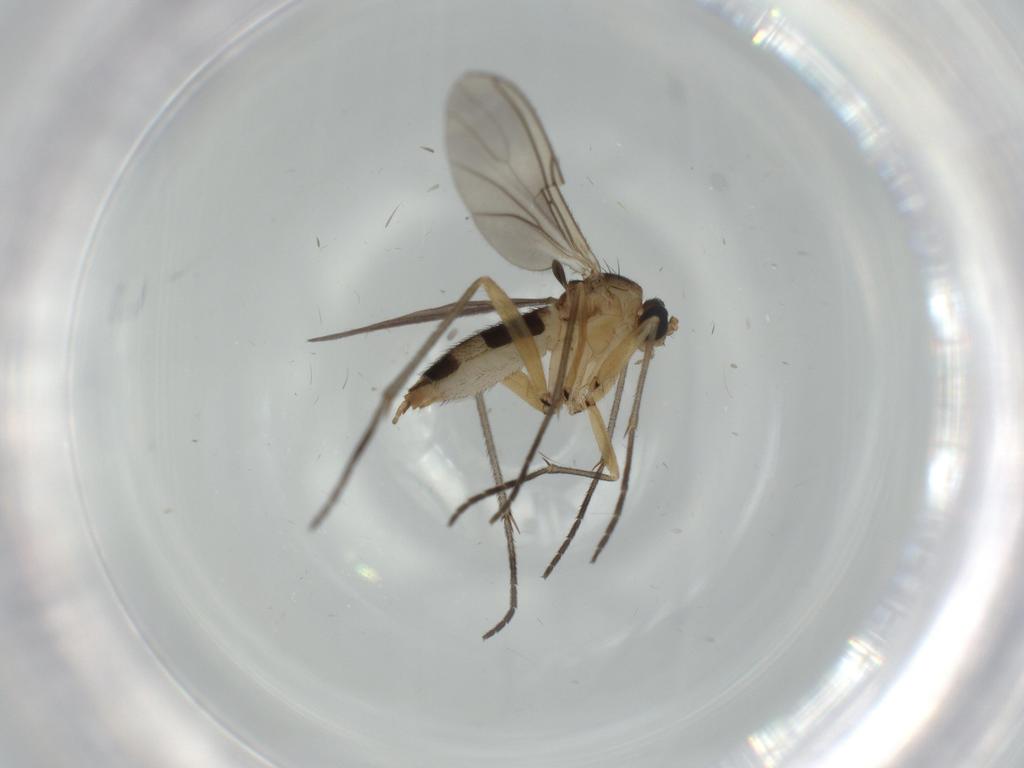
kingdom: Animalia
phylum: Arthropoda
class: Insecta
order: Diptera
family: Sciaridae
